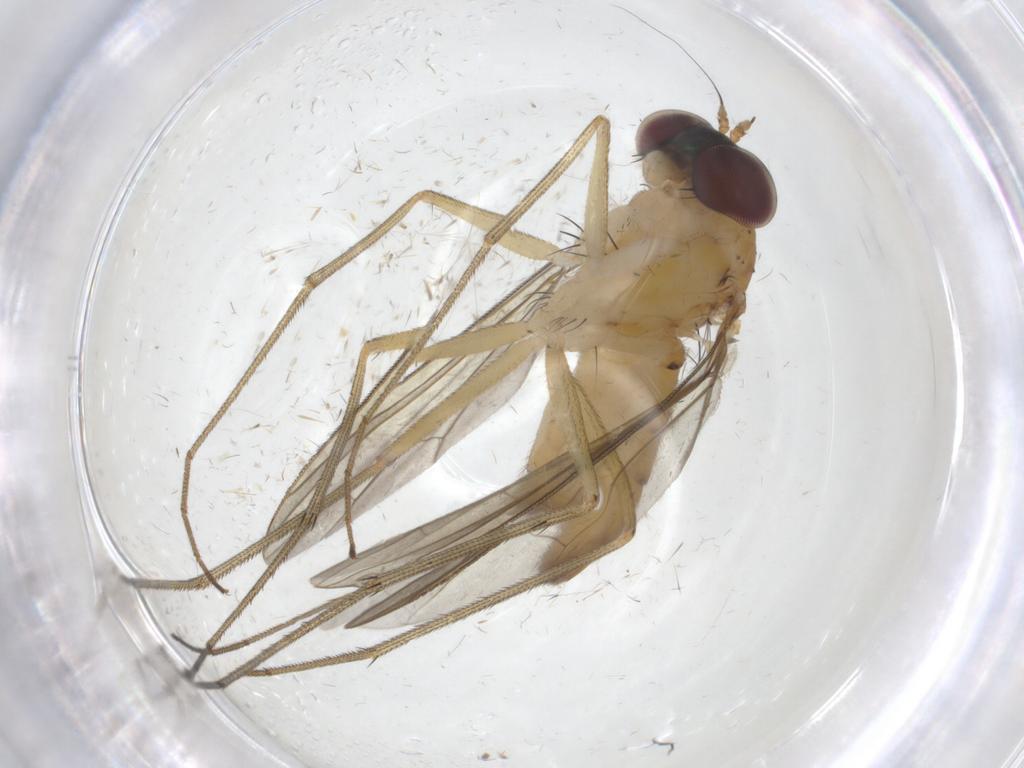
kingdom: Animalia
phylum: Arthropoda
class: Insecta
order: Diptera
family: Dolichopodidae
